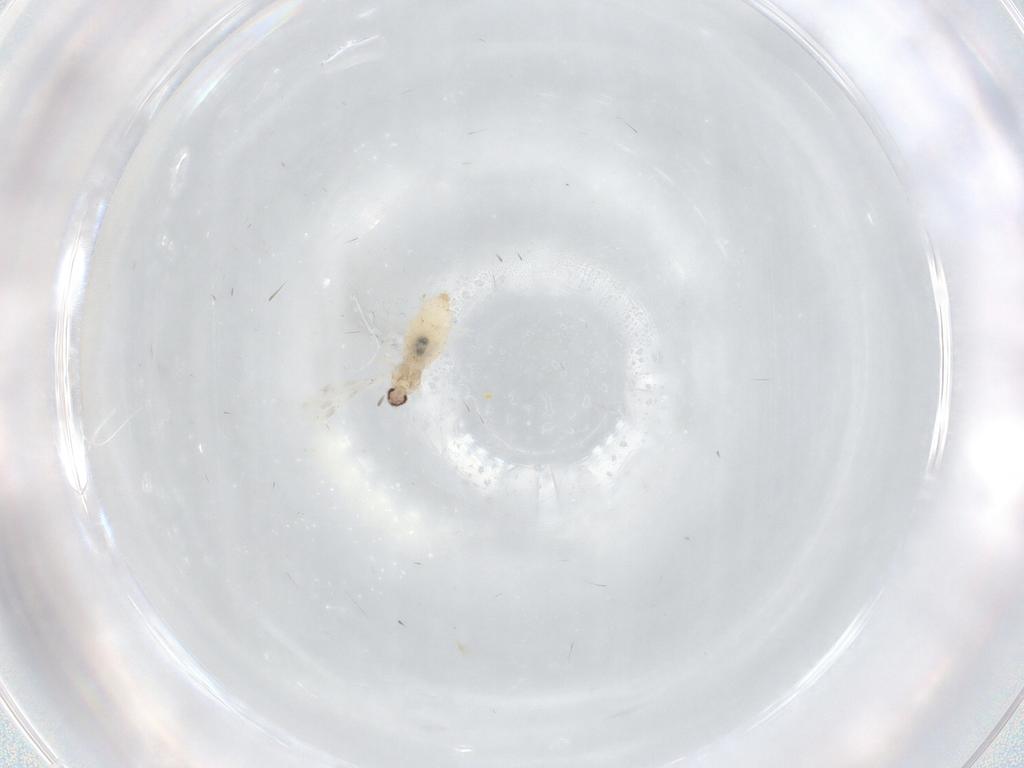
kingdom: Animalia
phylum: Arthropoda
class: Insecta
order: Diptera
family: Cecidomyiidae
